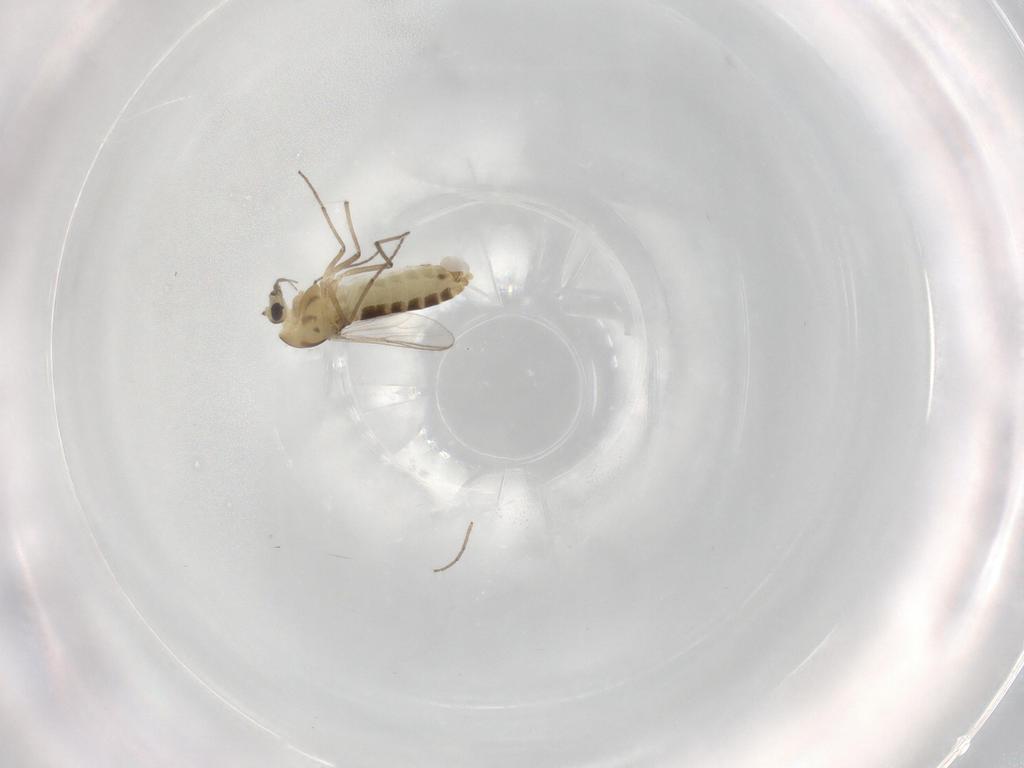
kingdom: Animalia
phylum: Arthropoda
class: Insecta
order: Diptera
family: Chironomidae
